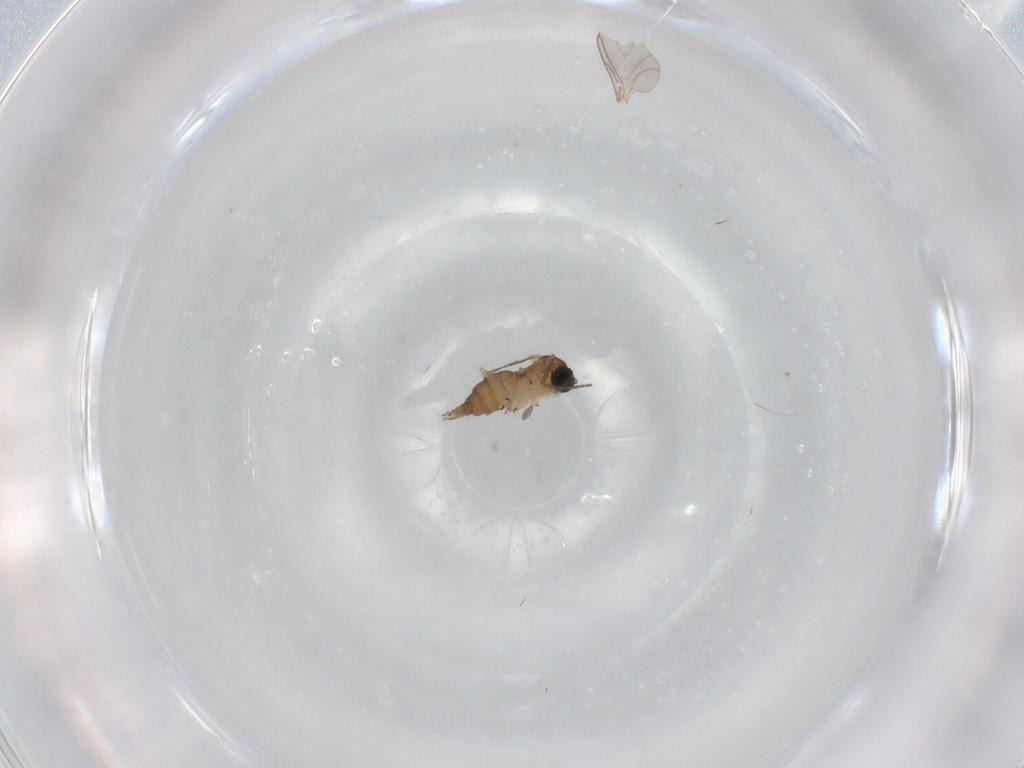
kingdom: Animalia
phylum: Arthropoda
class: Insecta
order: Diptera
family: Sciaridae
